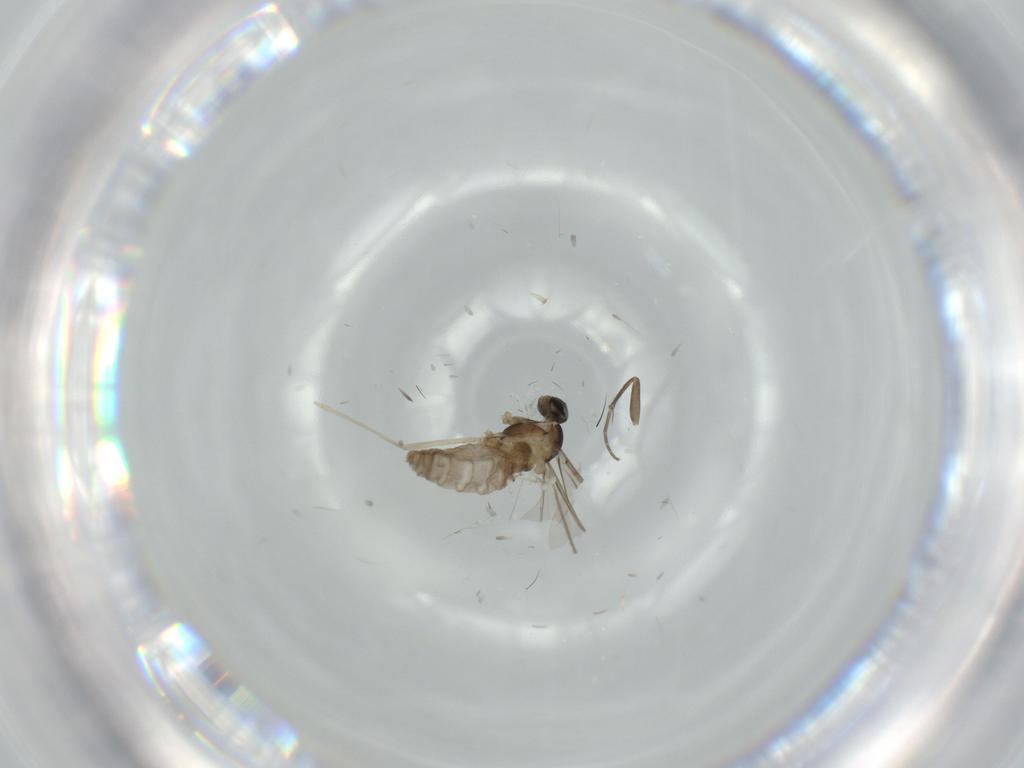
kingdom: Animalia
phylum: Arthropoda
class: Insecta
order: Diptera
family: Cecidomyiidae
